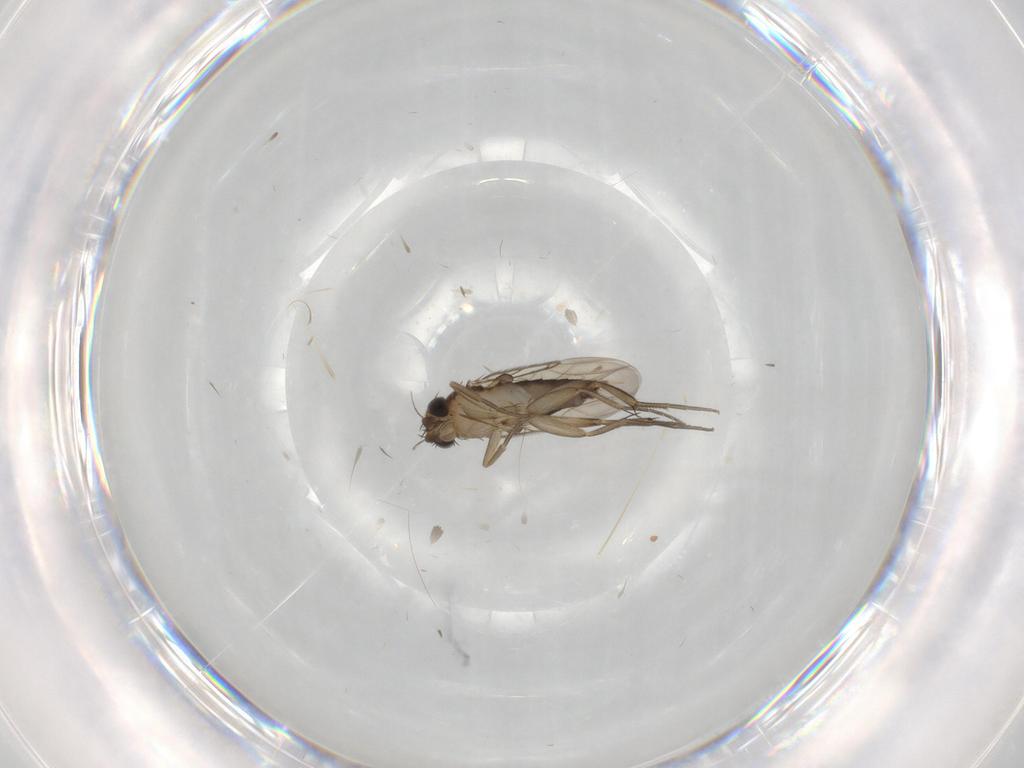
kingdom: Animalia
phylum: Arthropoda
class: Insecta
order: Diptera
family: Phoridae
